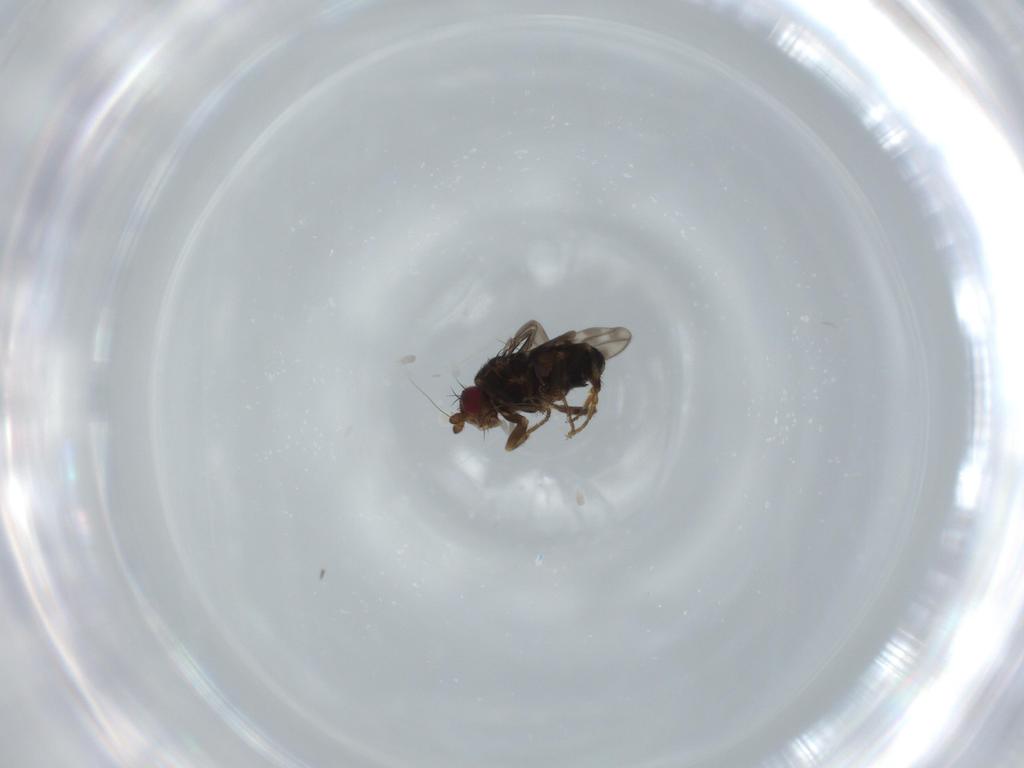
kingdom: Animalia
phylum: Arthropoda
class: Insecta
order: Diptera
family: Sphaeroceridae
